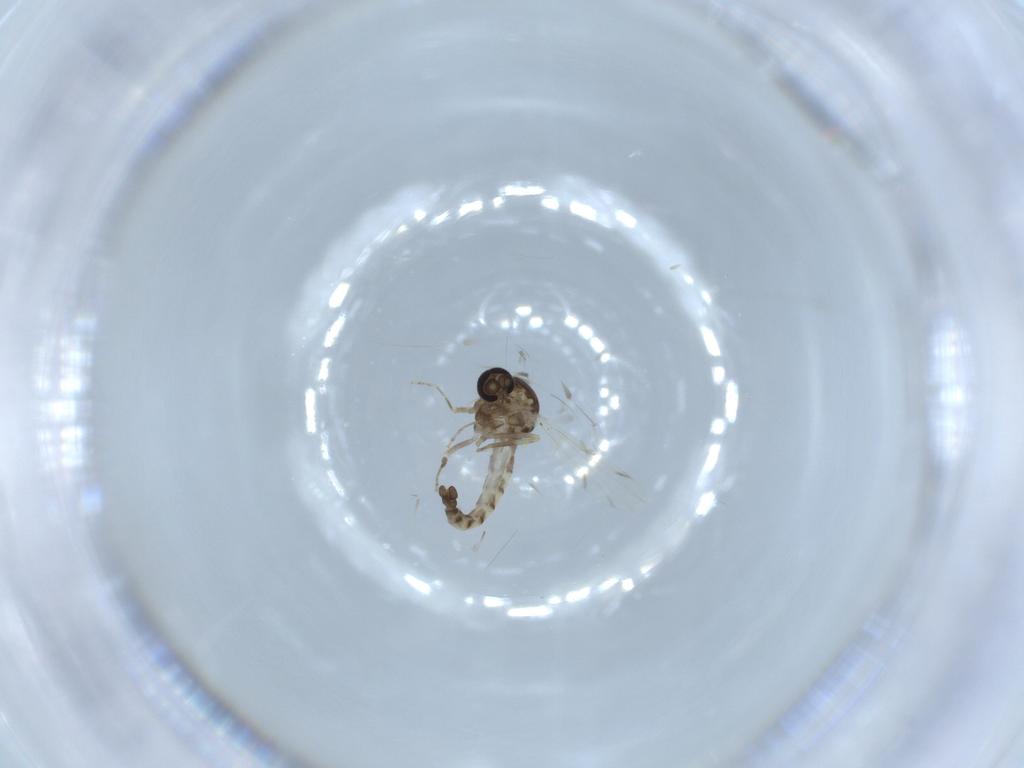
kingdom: Animalia
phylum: Arthropoda
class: Insecta
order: Diptera
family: Ceratopogonidae
